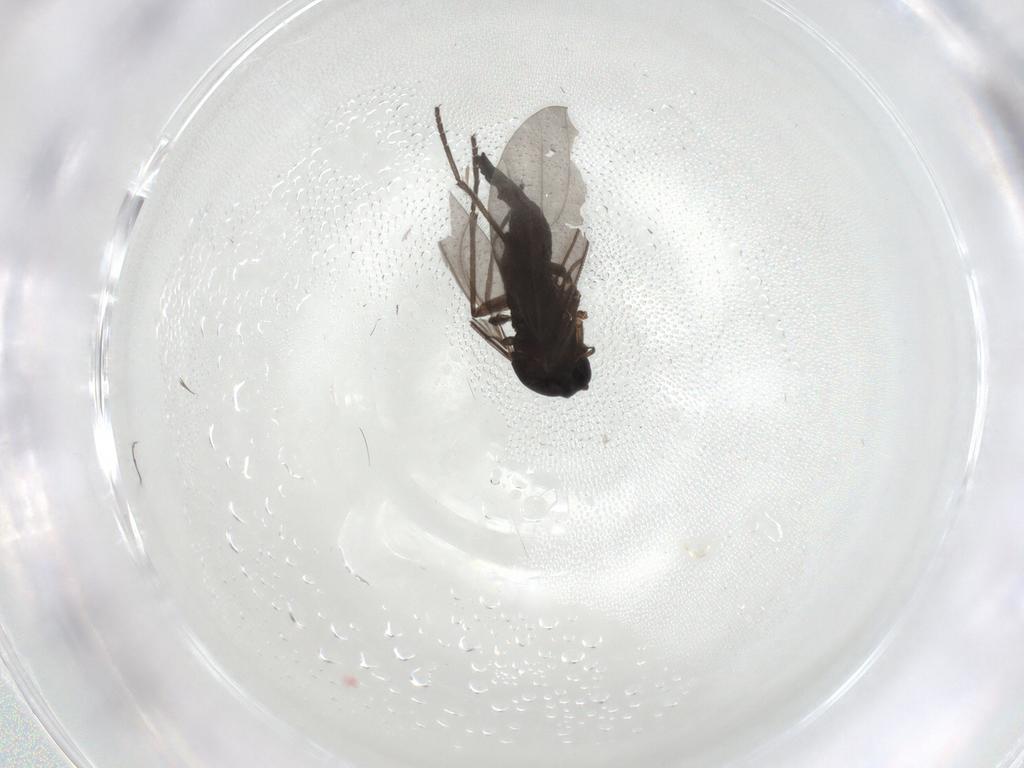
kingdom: Animalia
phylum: Arthropoda
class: Insecta
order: Diptera
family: Sciaridae
